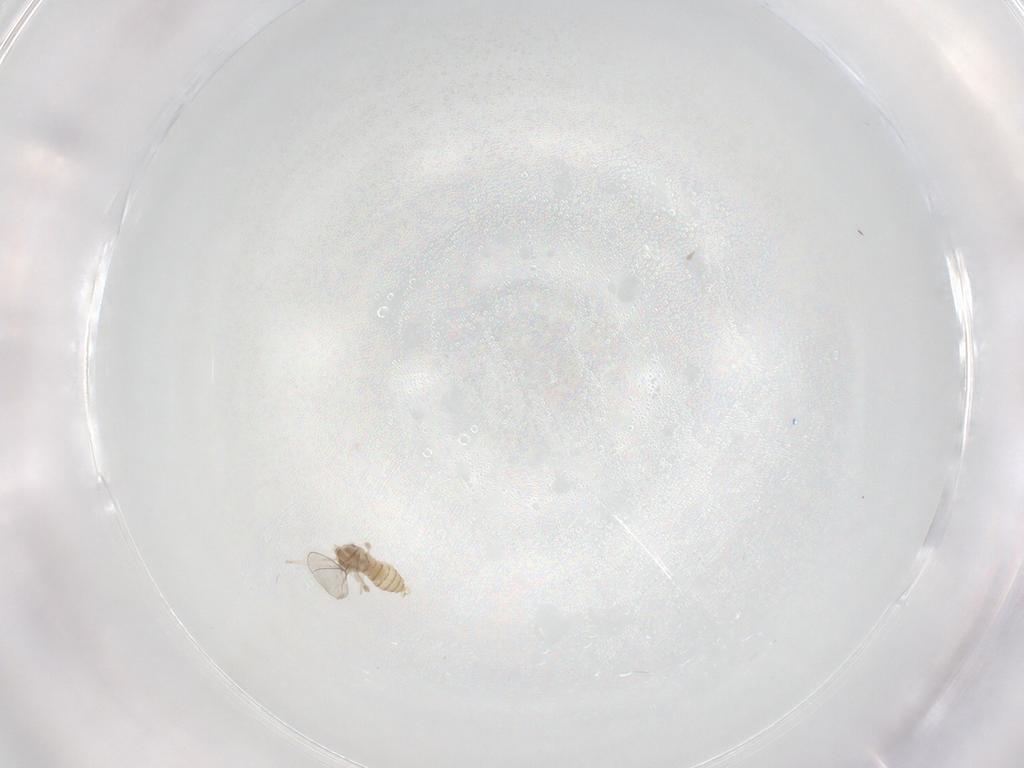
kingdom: Animalia
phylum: Arthropoda
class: Insecta
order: Diptera
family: Cecidomyiidae
